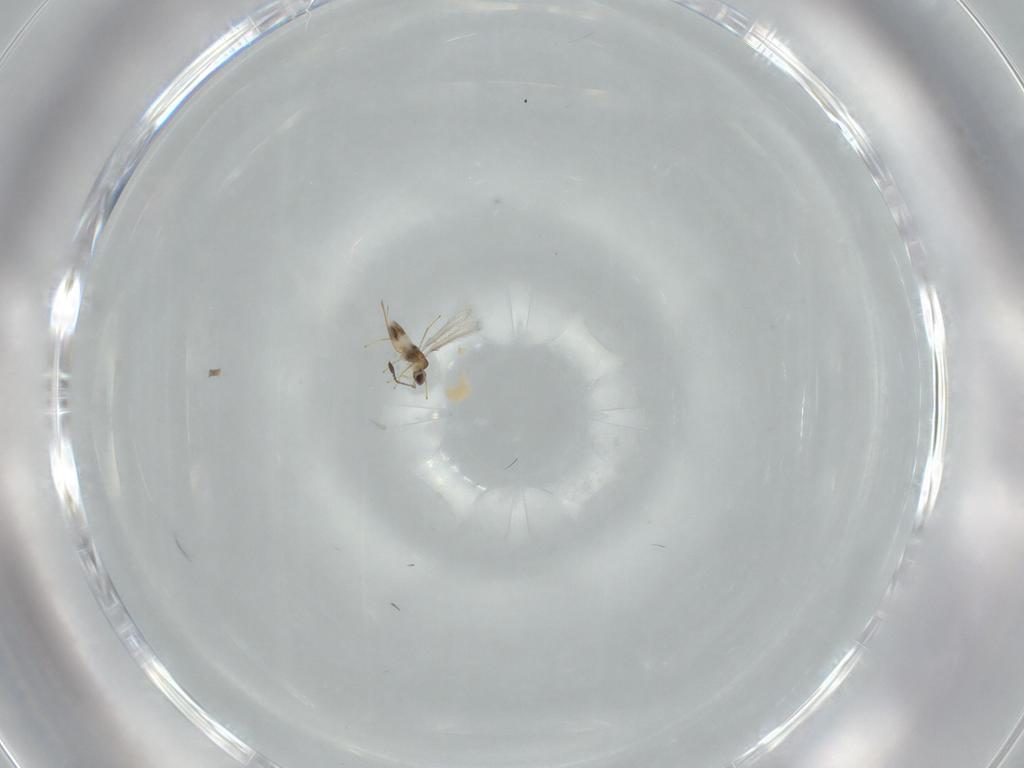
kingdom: Animalia
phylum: Arthropoda
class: Insecta
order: Hymenoptera
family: Mymaridae
